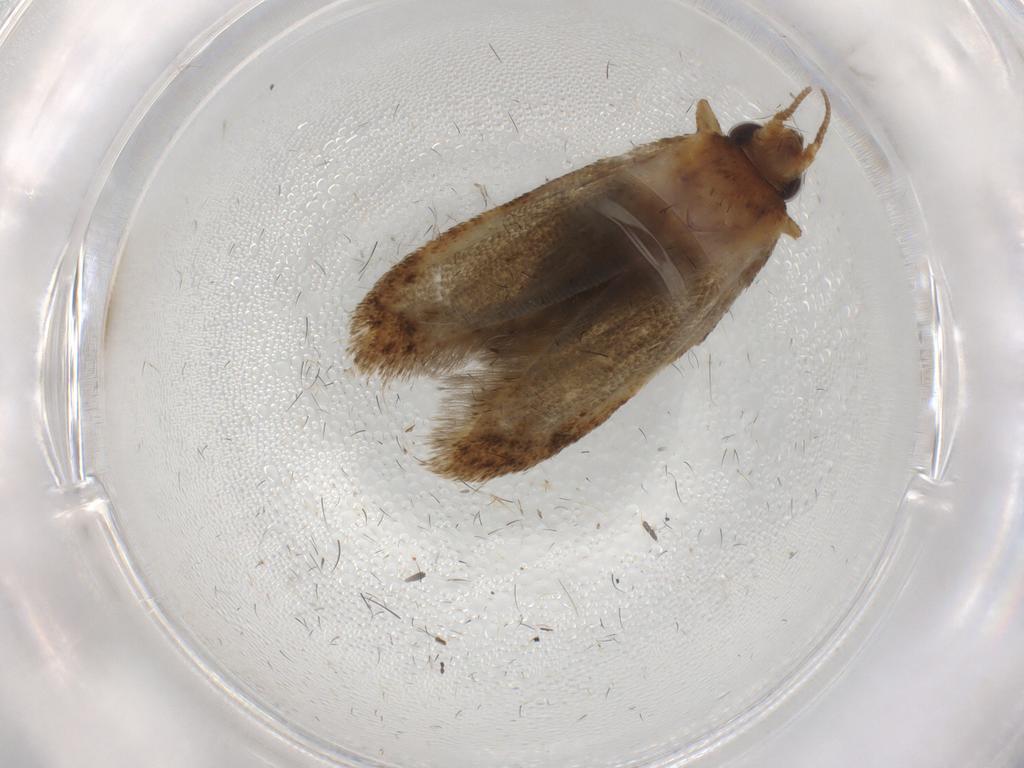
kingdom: Animalia
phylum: Arthropoda
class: Insecta
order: Lepidoptera
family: Blastobasidae
